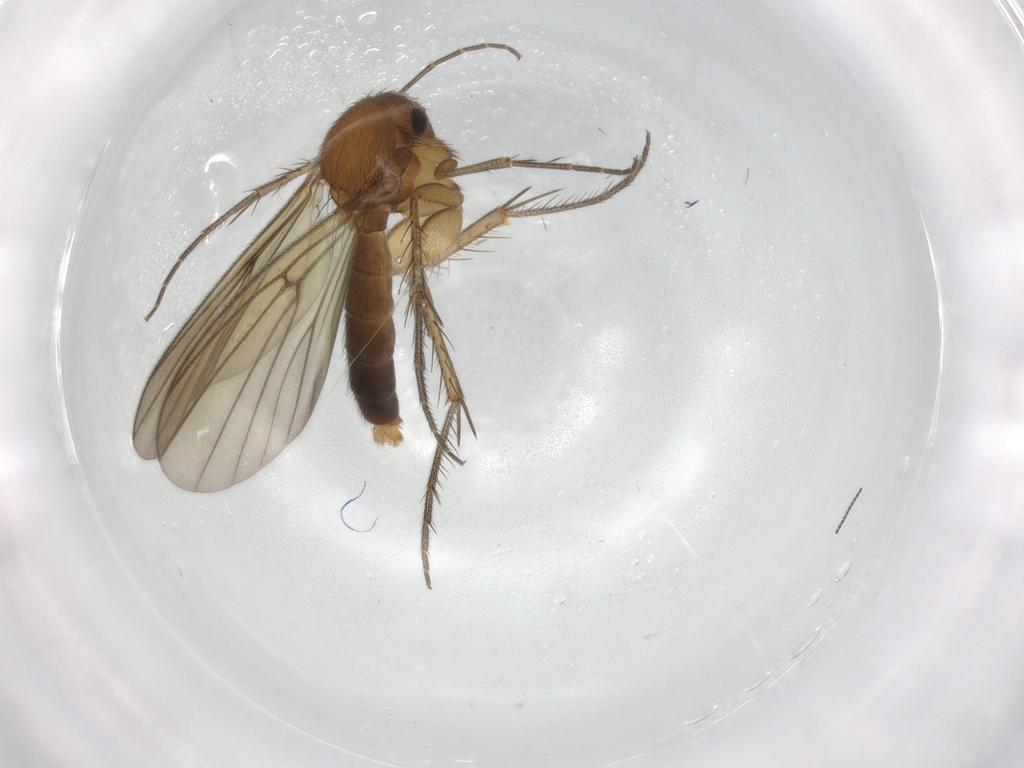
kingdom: Animalia
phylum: Arthropoda
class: Insecta
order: Diptera
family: Sciaridae
